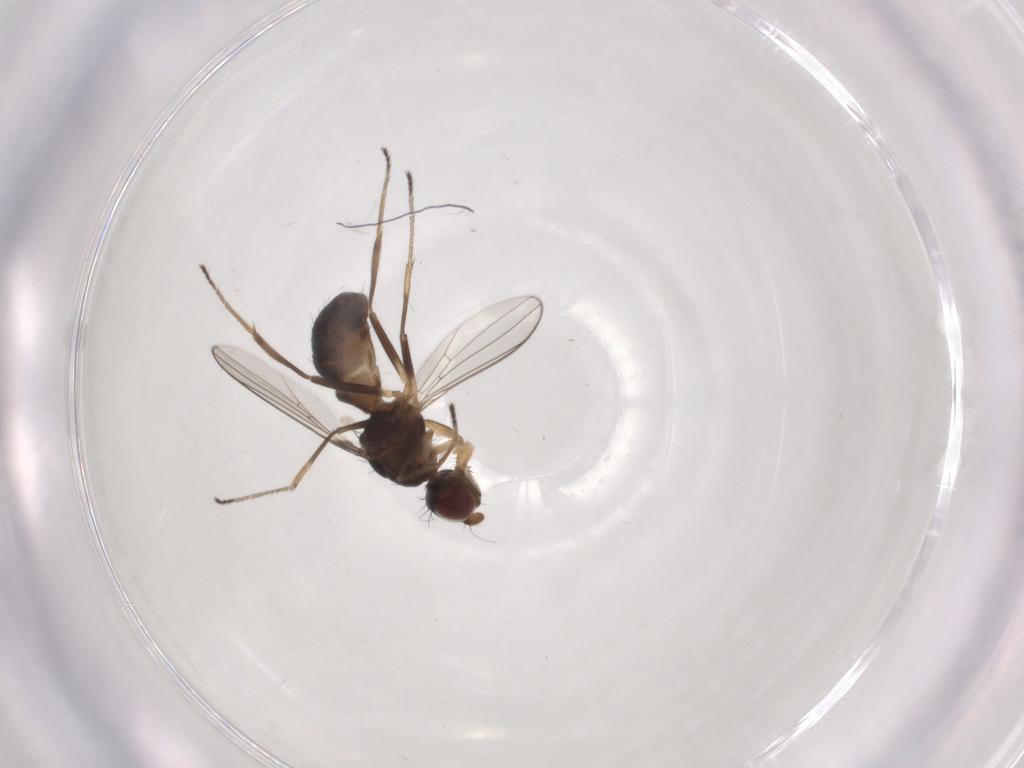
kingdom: Animalia
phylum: Arthropoda
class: Insecta
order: Diptera
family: Sepsidae
